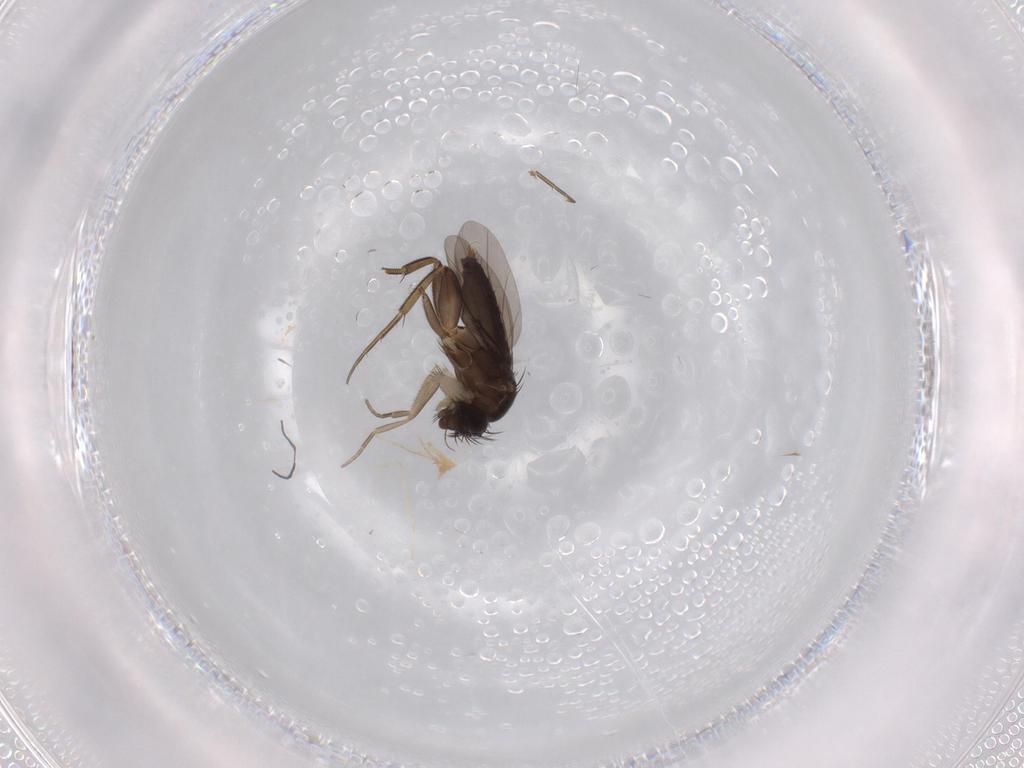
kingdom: Animalia
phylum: Arthropoda
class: Insecta
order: Diptera
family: Phoridae
